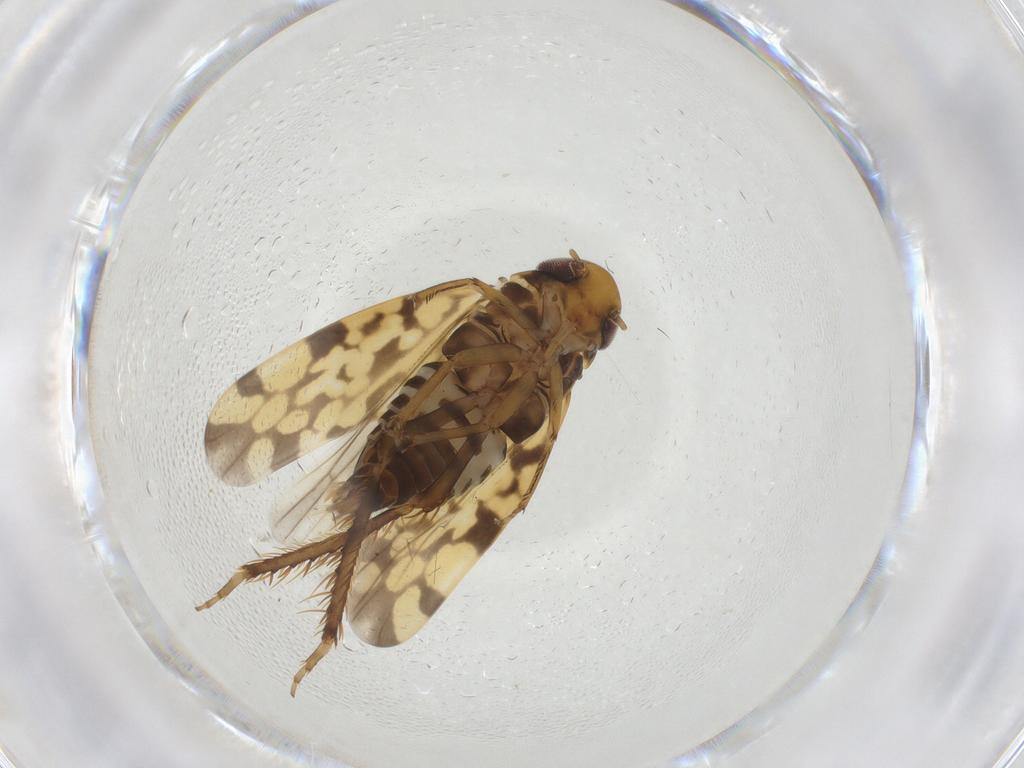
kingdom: Animalia
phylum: Arthropoda
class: Insecta
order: Hemiptera
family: Cicadellidae
